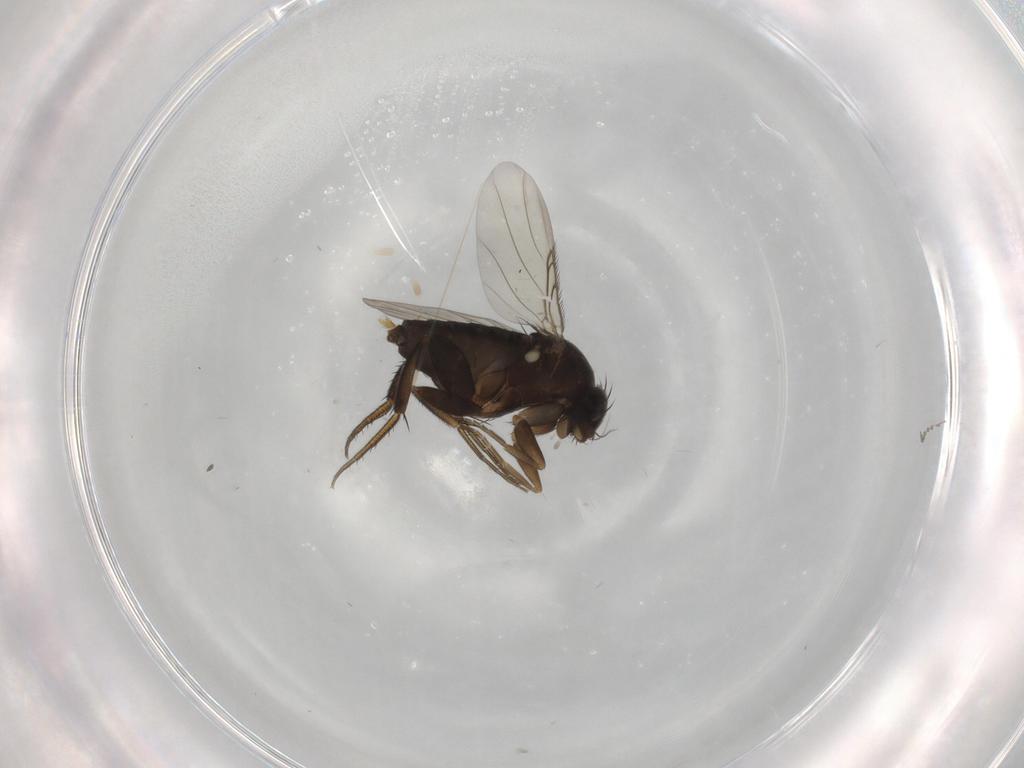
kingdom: Animalia
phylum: Arthropoda
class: Insecta
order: Diptera
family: Phoridae
